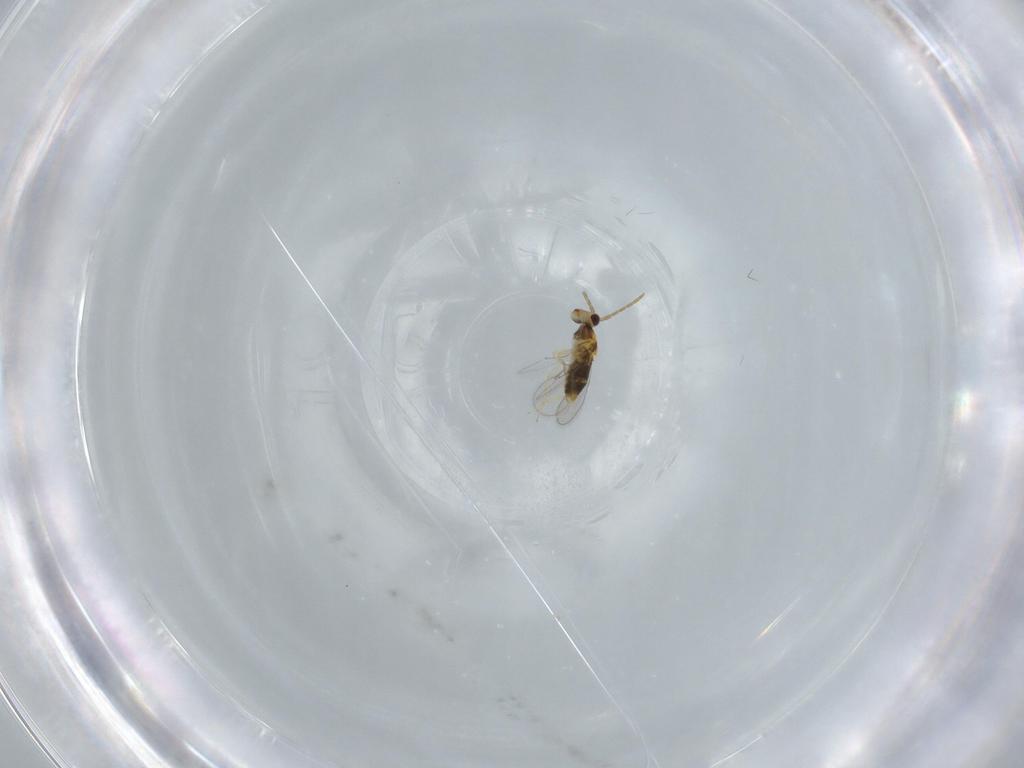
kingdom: Animalia
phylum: Arthropoda
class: Insecta
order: Hymenoptera
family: Aphelinidae
